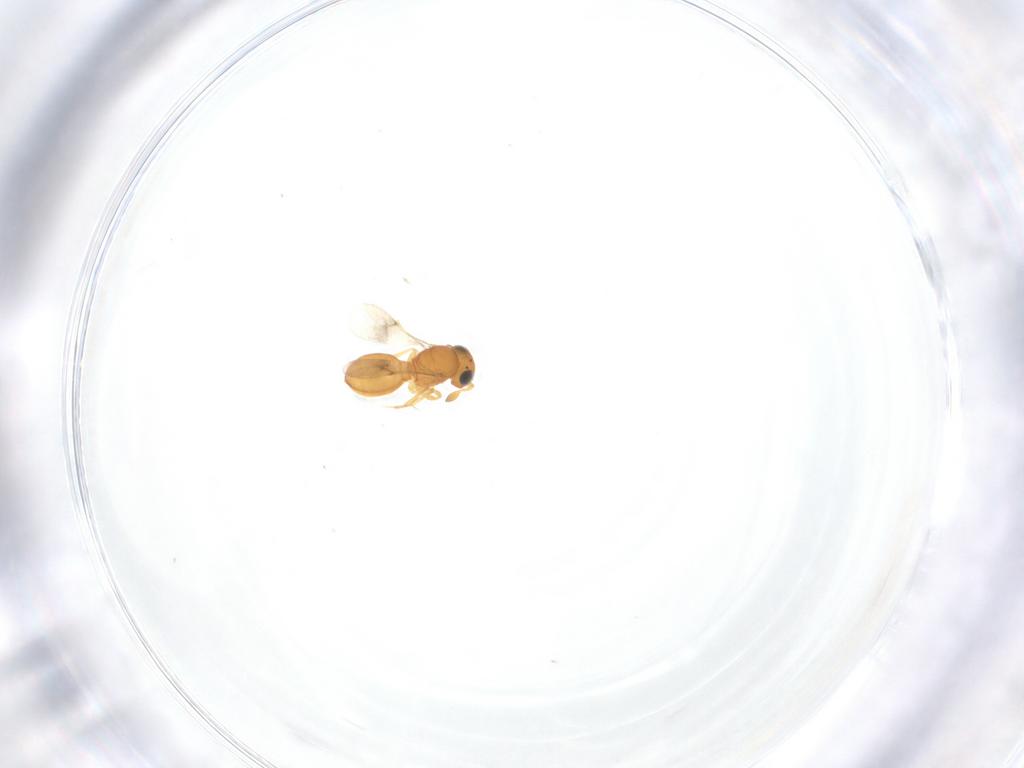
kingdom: Animalia
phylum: Arthropoda
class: Insecta
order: Hymenoptera
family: Scelionidae
